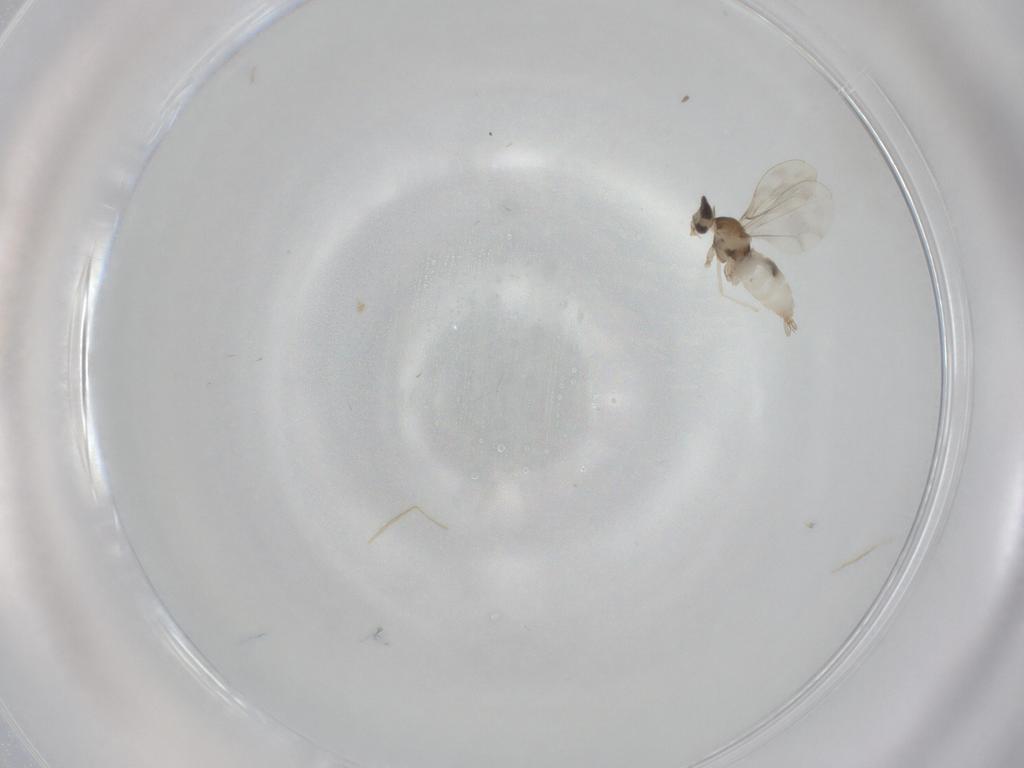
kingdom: Animalia
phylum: Arthropoda
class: Insecta
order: Diptera
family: Cecidomyiidae
